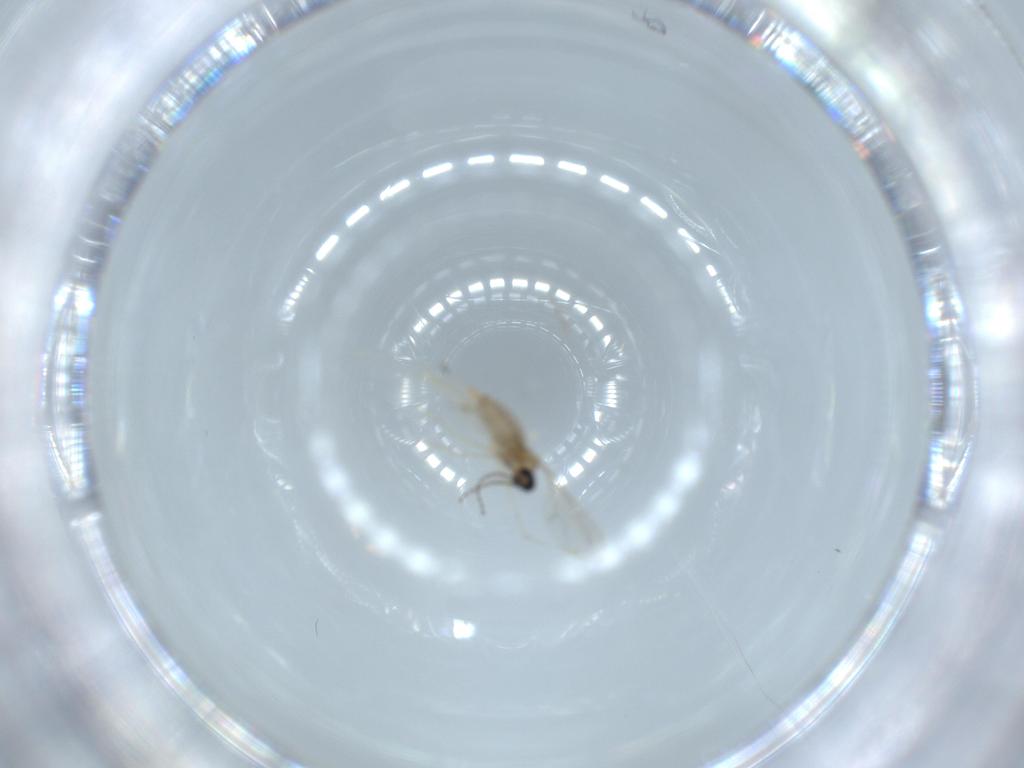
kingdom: Animalia
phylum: Arthropoda
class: Insecta
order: Diptera
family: Cecidomyiidae
